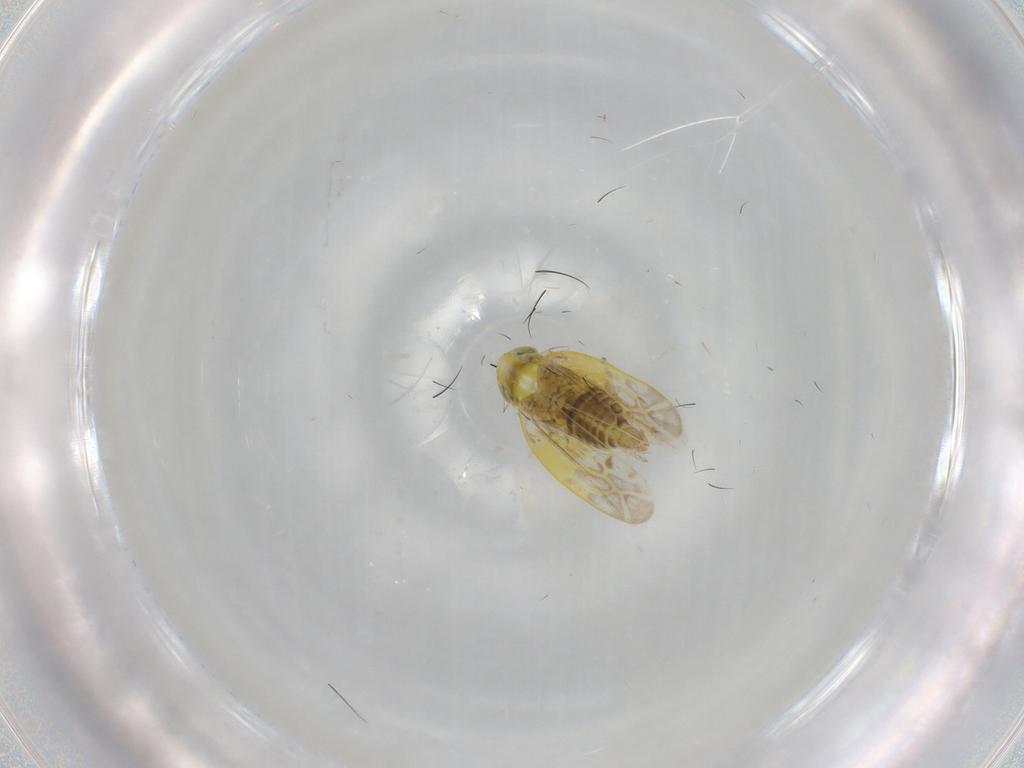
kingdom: Animalia
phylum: Arthropoda
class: Insecta
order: Hemiptera
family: Cicadellidae
